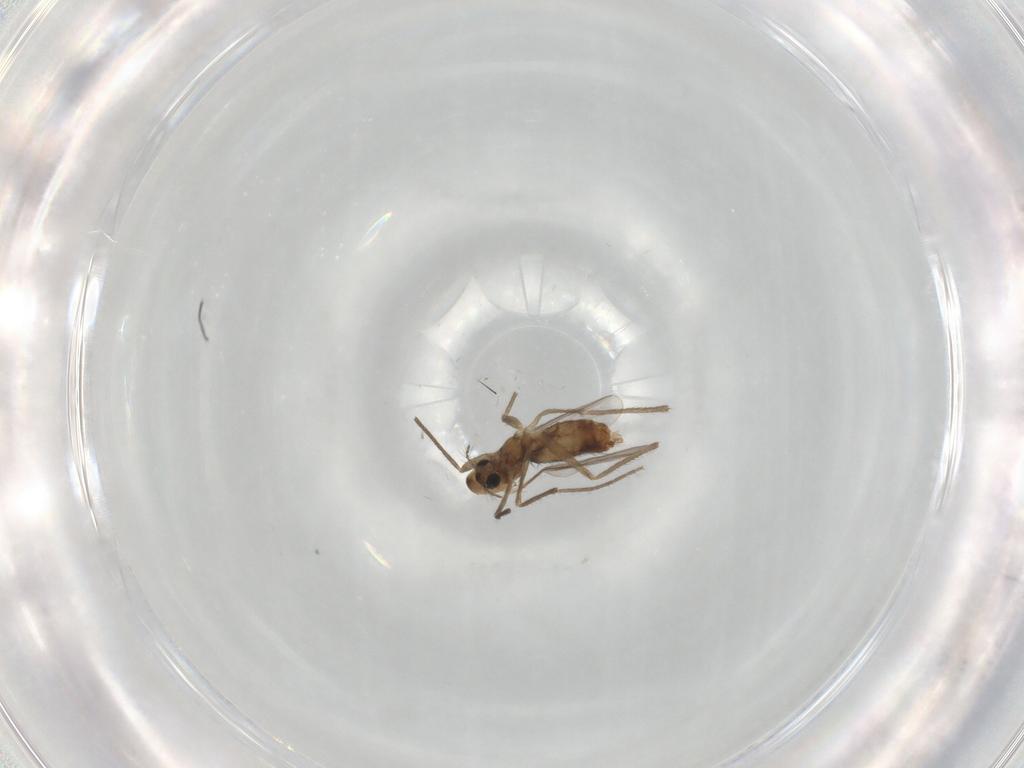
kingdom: Animalia
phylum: Arthropoda
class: Insecta
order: Diptera
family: Chironomidae
